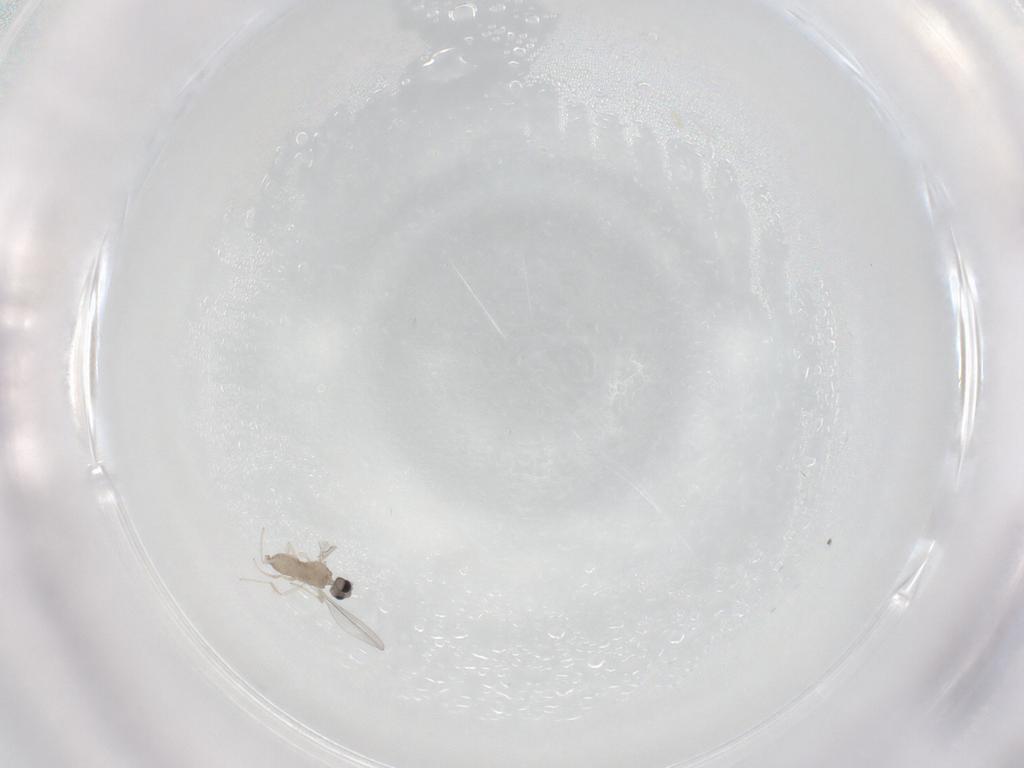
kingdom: Animalia
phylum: Arthropoda
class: Insecta
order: Diptera
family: Cecidomyiidae
